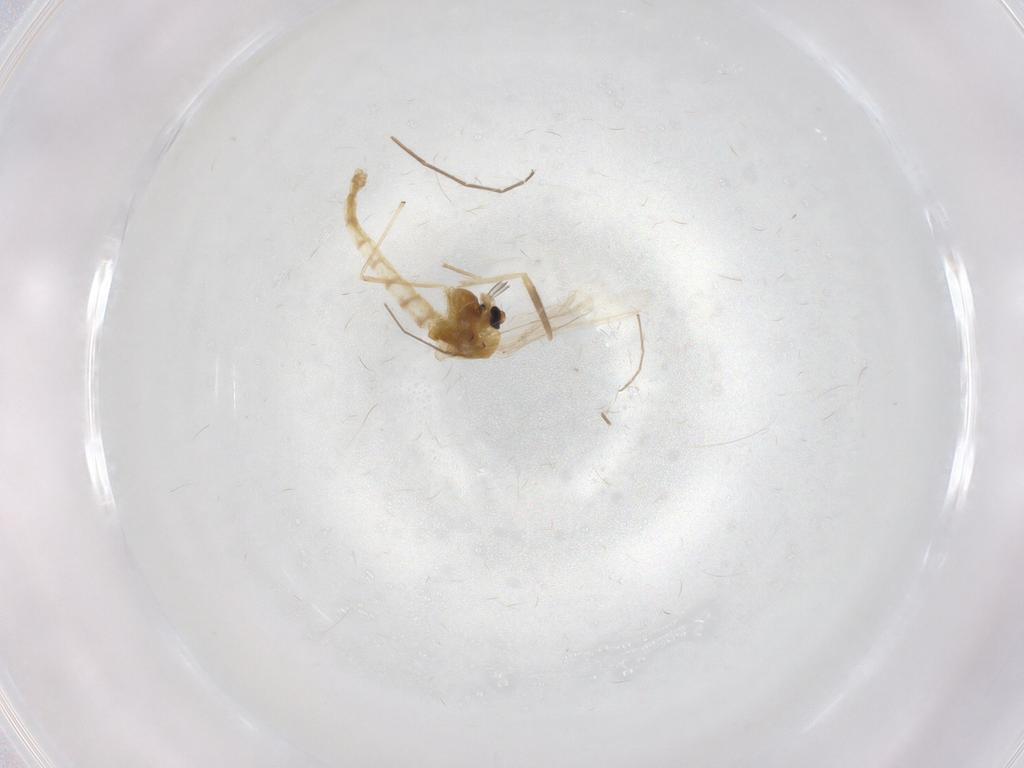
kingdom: Animalia
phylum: Arthropoda
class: Insecta
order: Diptera
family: Chironomidae
